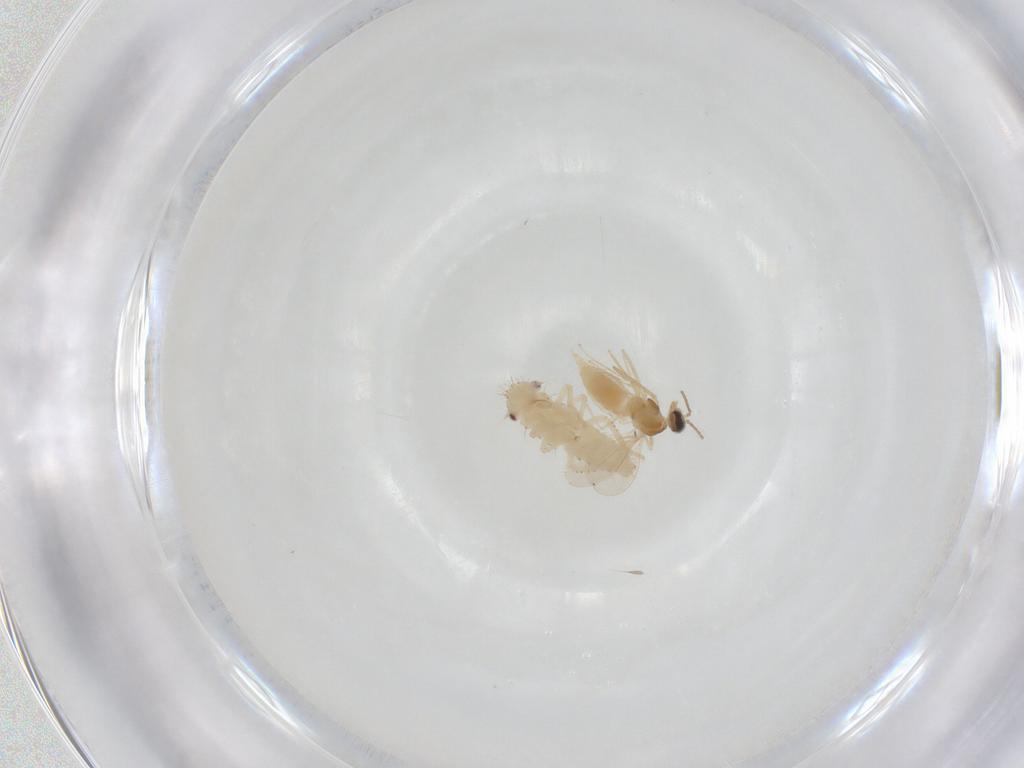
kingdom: Animalia
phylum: Arthropoda
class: Insecta
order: Diptera
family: Cecidomyiidae
